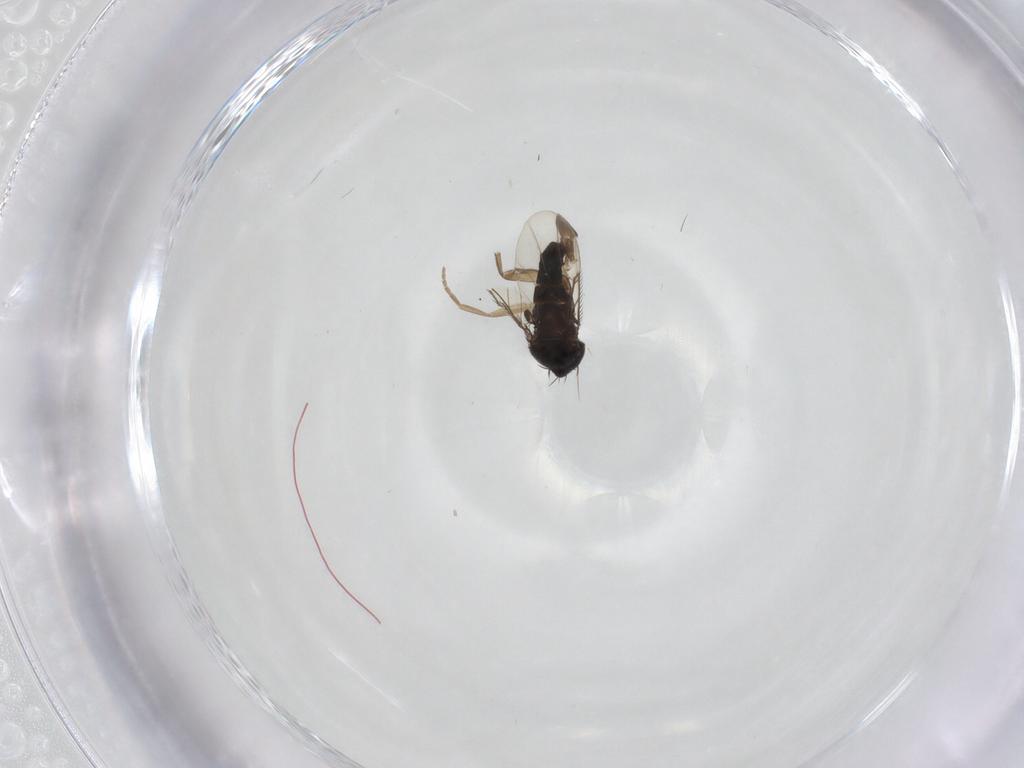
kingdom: Animalia
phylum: Arthropoda
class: Insecta
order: Diptera
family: Phoridae
